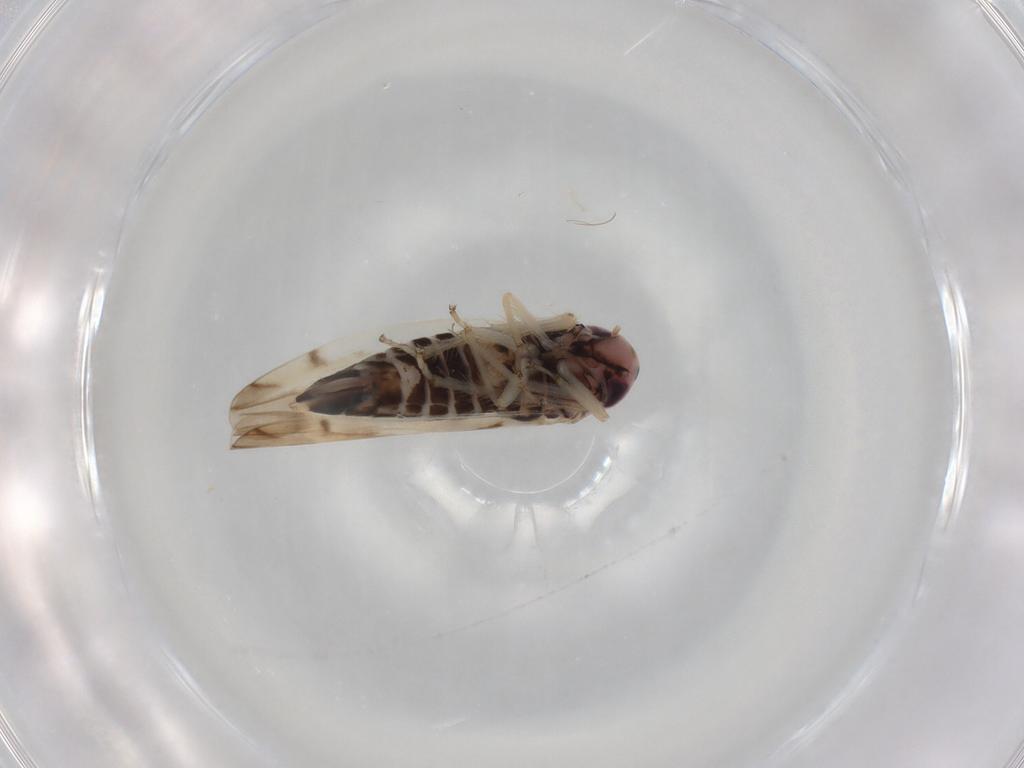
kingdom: Animalia
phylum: Arthropoda
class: Insecta
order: Hemiptera
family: Cicadellidae
